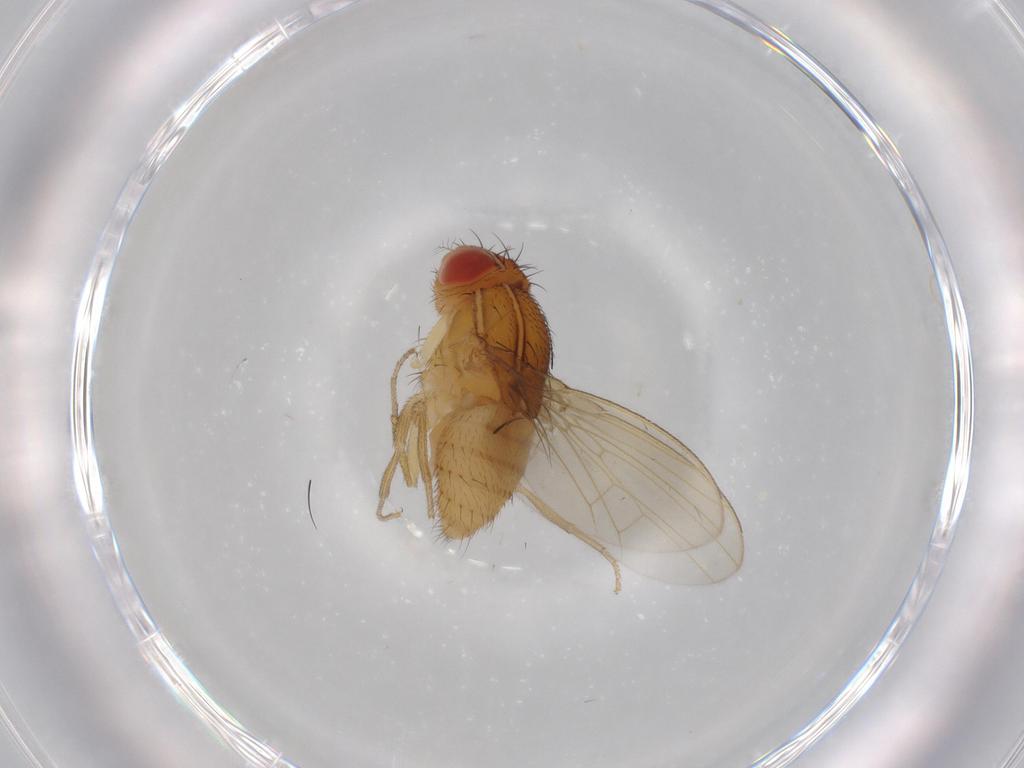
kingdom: Animalia
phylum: Arthropoda
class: Insecta
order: Diptera
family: Drosophilidae
